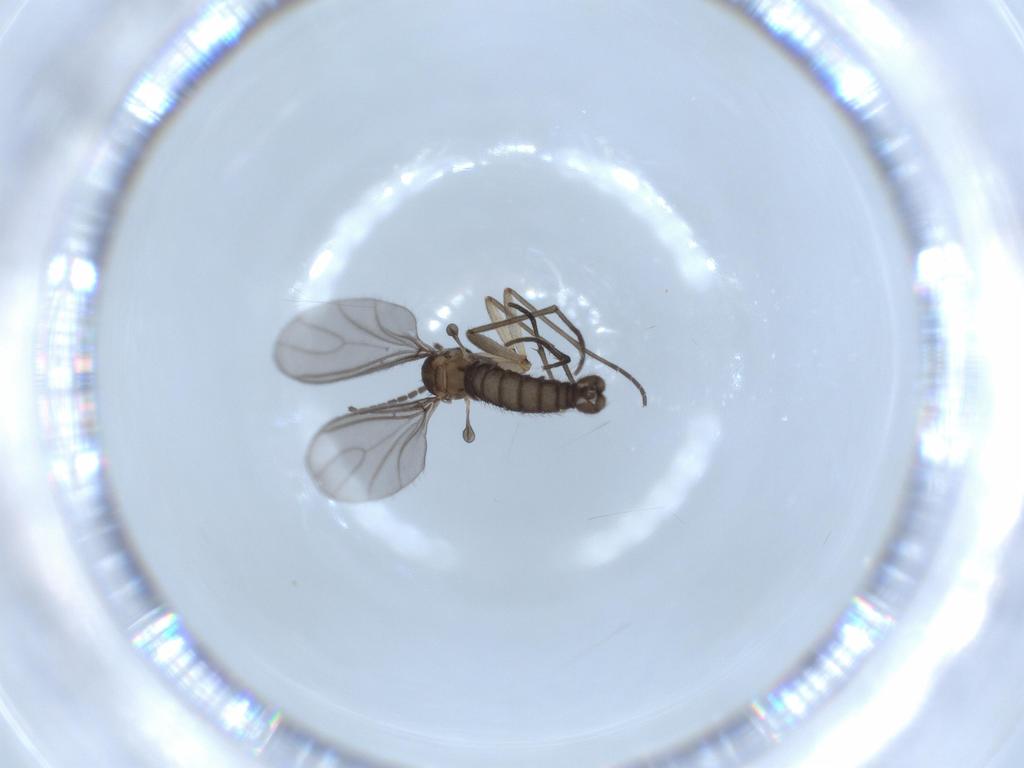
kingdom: Animalia
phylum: Arthropoda
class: Insecta
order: Diptera
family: Sciaridae
